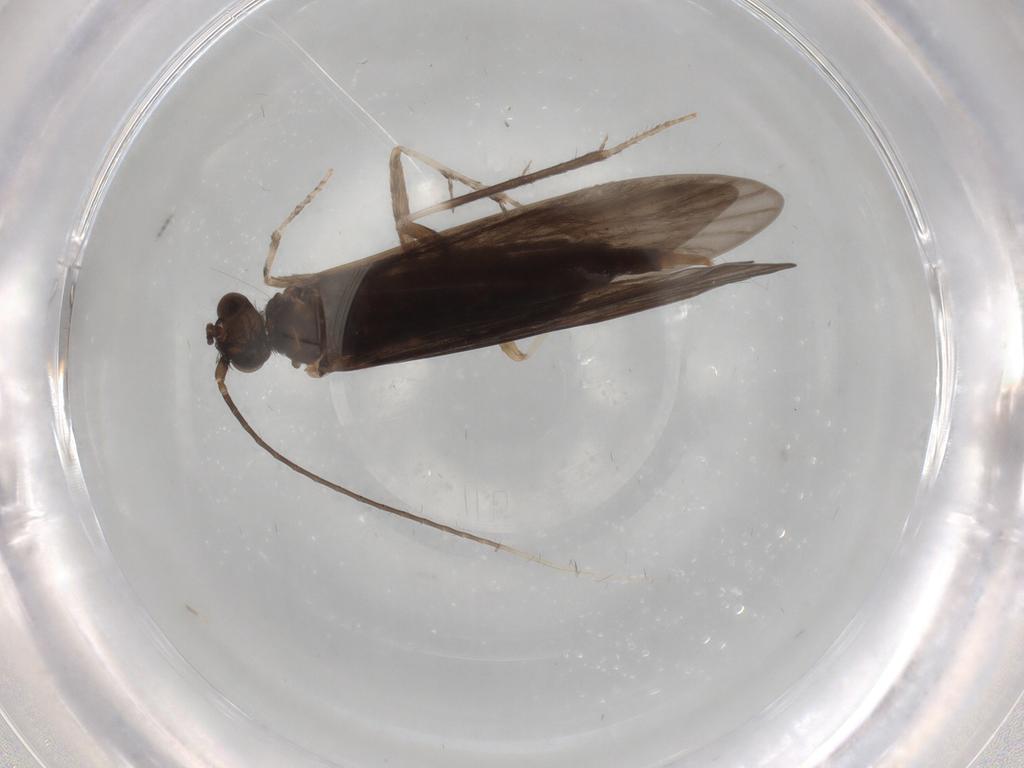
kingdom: Animalia
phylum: Arthropoda
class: Insecta
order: Trichoptera
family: Xiphocentronidae
